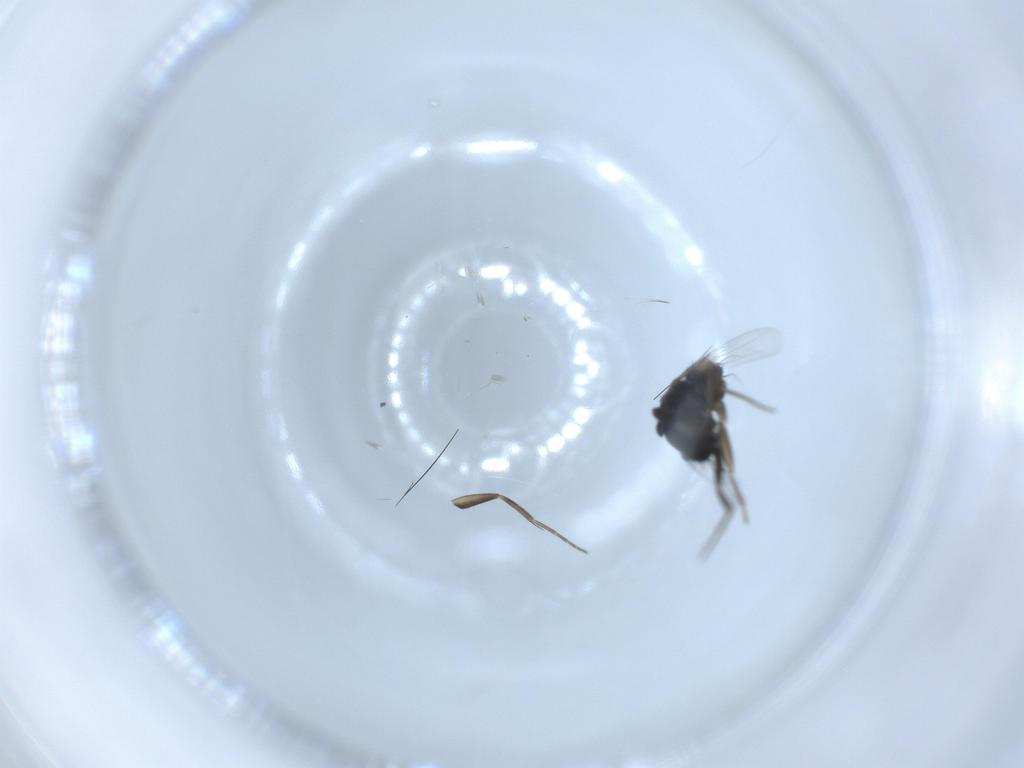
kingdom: Animalia
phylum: Arthropoda
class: Insecta
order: Diptera
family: Phoridae
